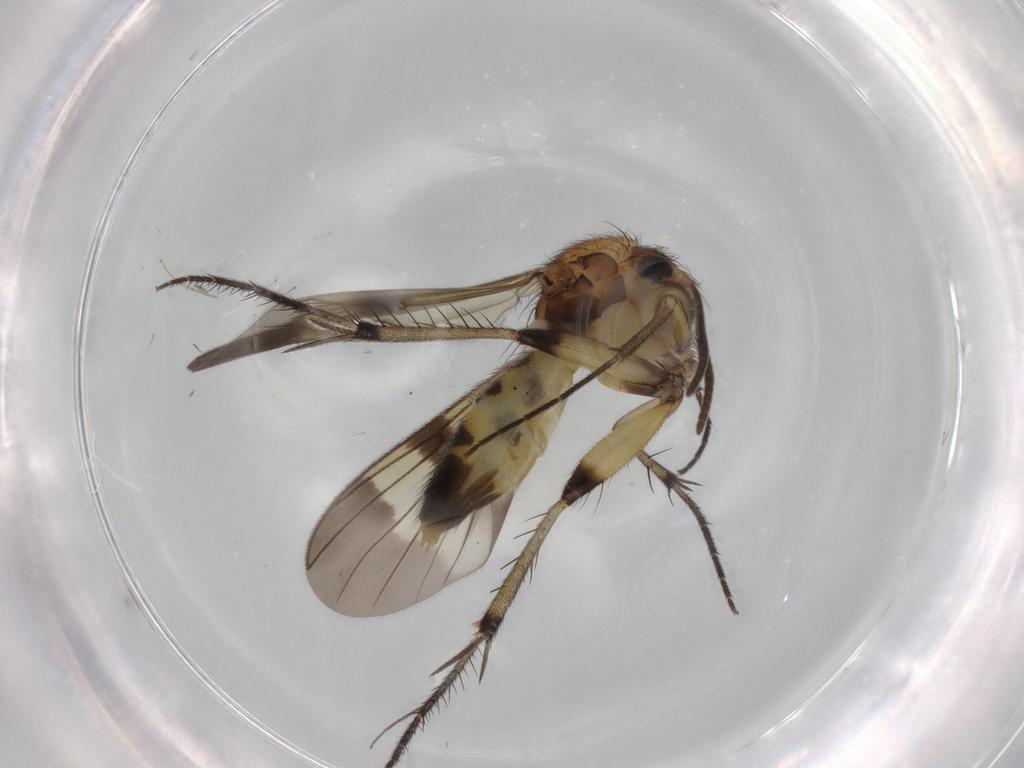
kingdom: Animalia
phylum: Arthropoda
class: Insecta
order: Diptera
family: Mycetophilidae
